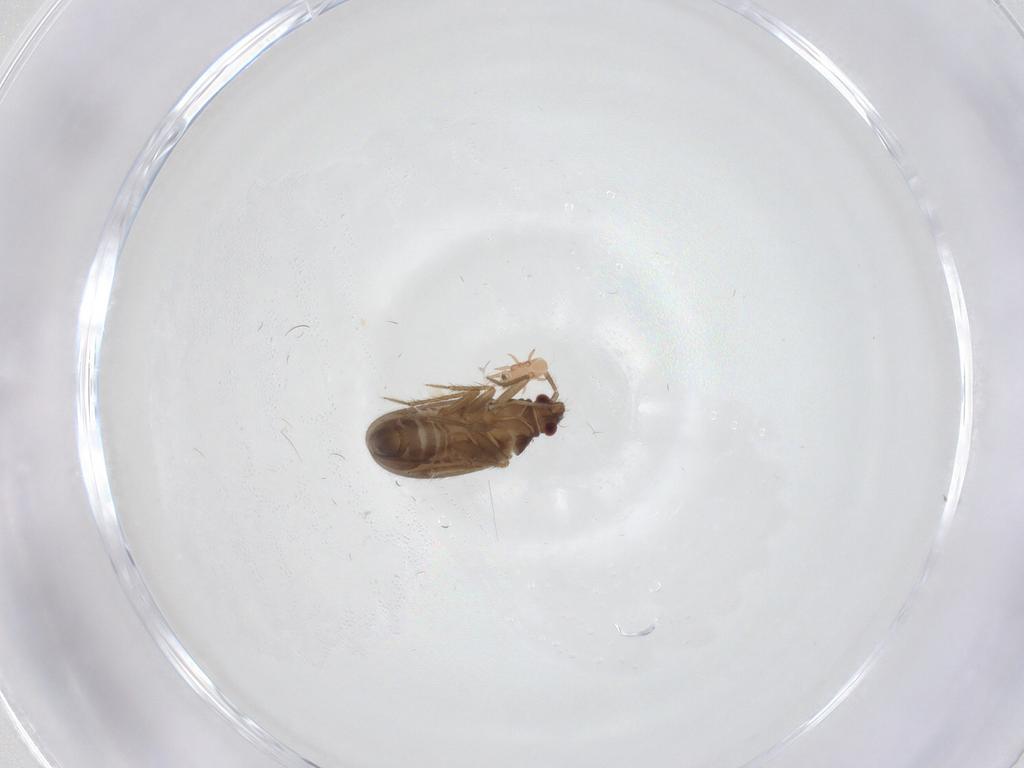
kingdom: Animalia
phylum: Arthropoda
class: Insecta
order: Hemiptera
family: Ceratocombidae
